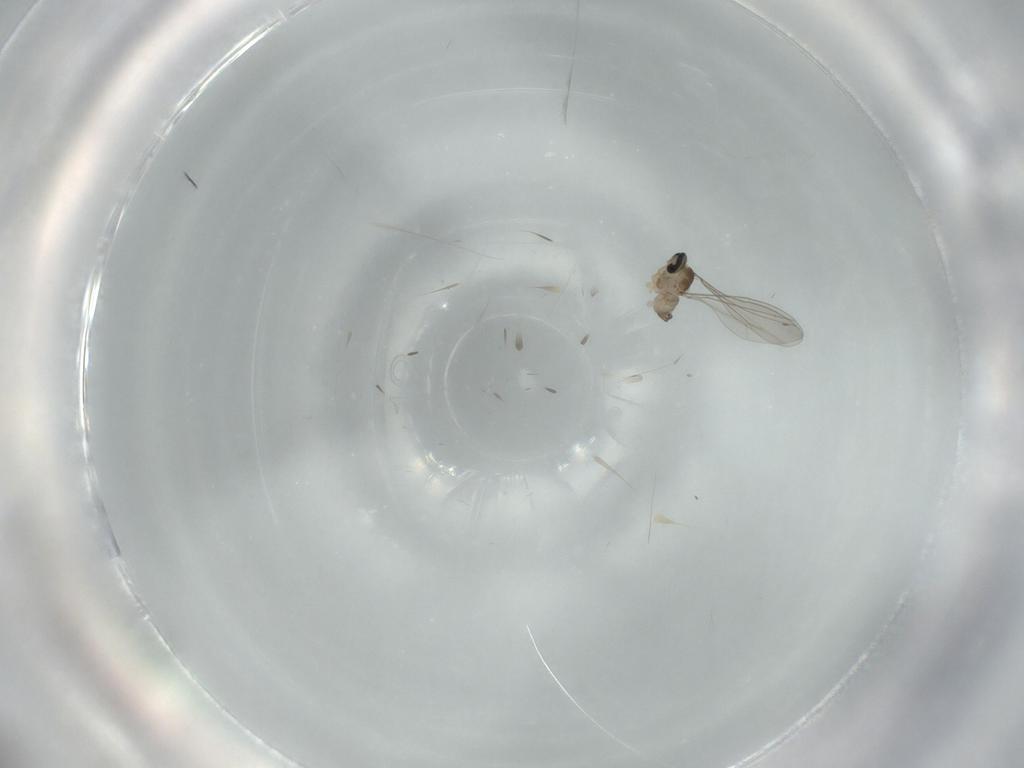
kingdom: Animalia
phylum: Arthropoda
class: Insecta
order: Diptera
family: Cecidomyiidae
